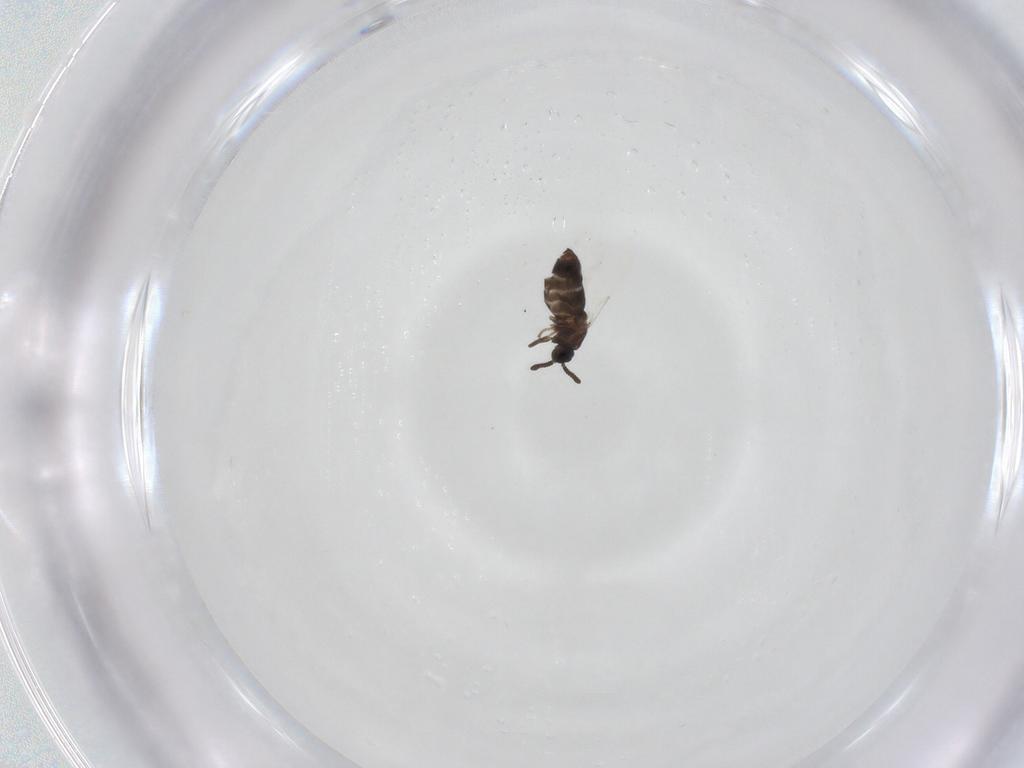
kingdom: Animalia
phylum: Arthropoda
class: Insecta
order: Diptera
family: Scatopsidae
